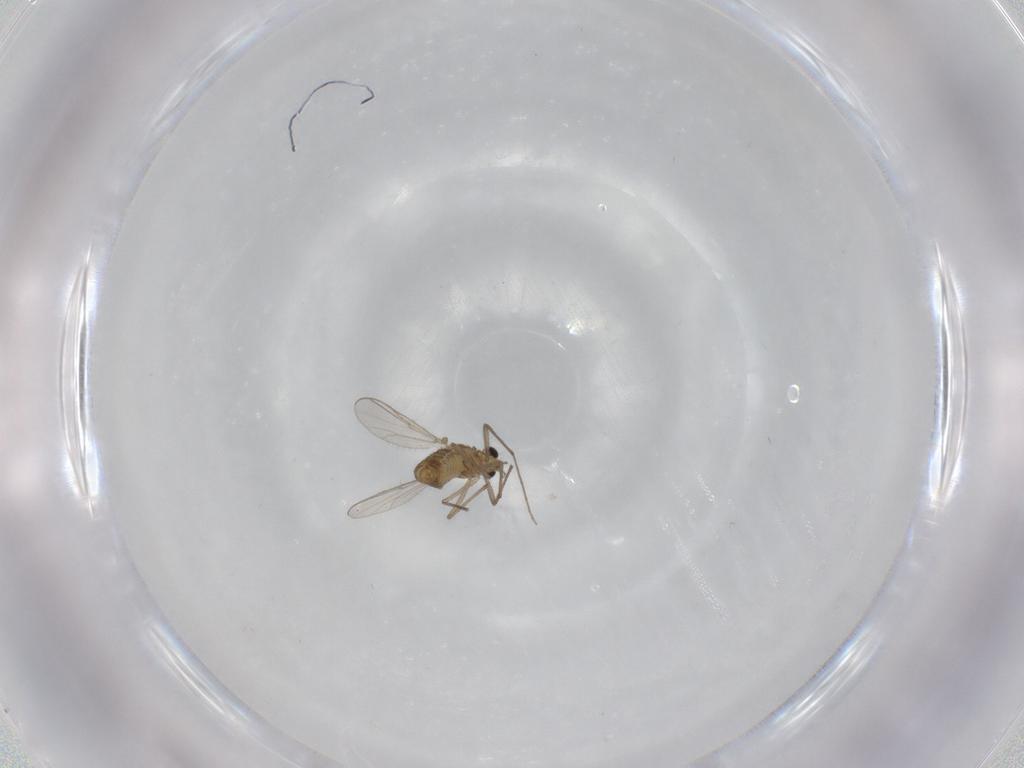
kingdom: Animalia
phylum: Arthropoda
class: Insecta
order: Diptera
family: Chironomidae
